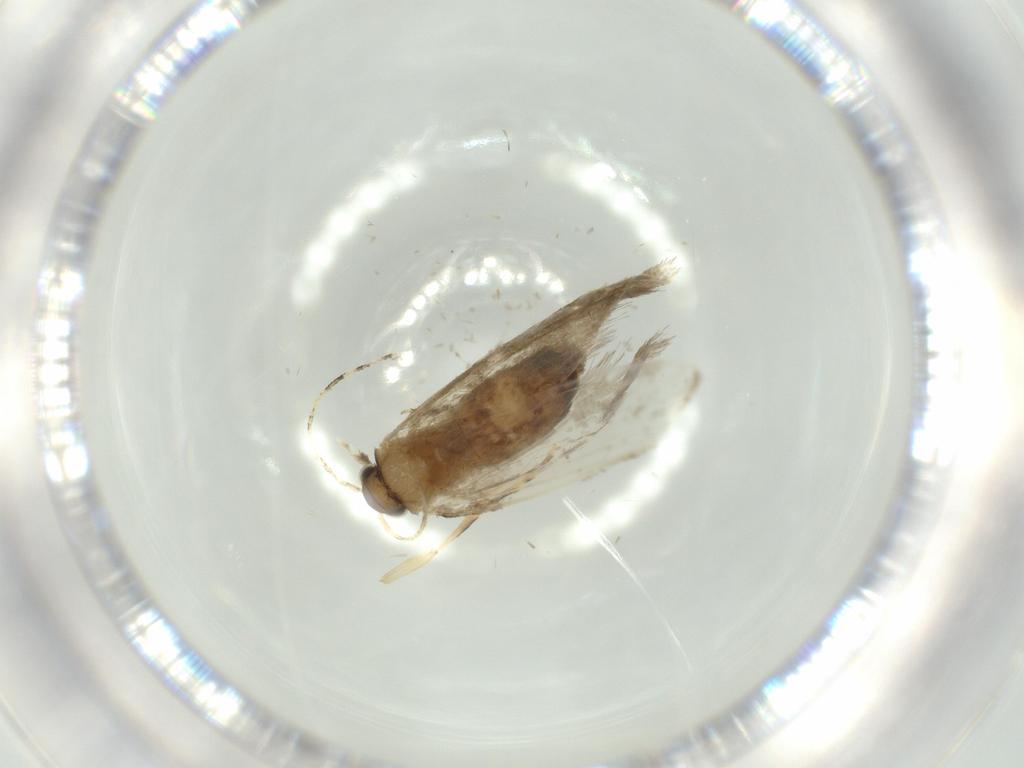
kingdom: Animalia
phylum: Arthropoda
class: Insecta
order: Lepidoptera
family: Tineidae
